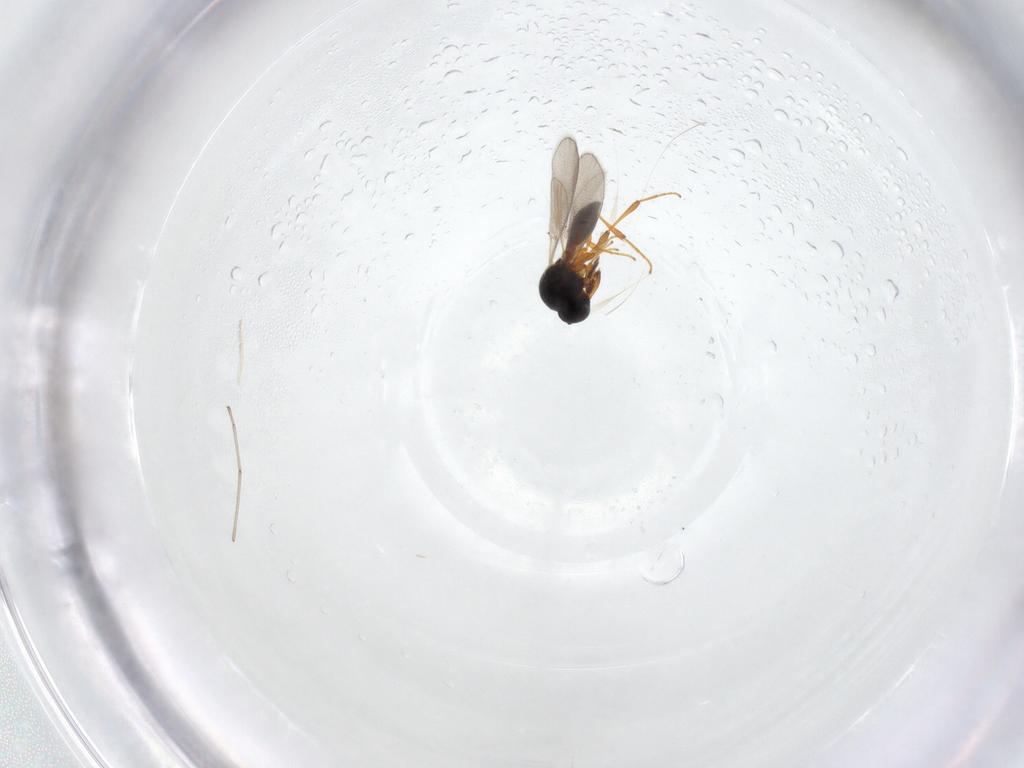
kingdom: Animalia
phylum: Arthropoda
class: Insecta
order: Hymenoptera
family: Platygastridae
